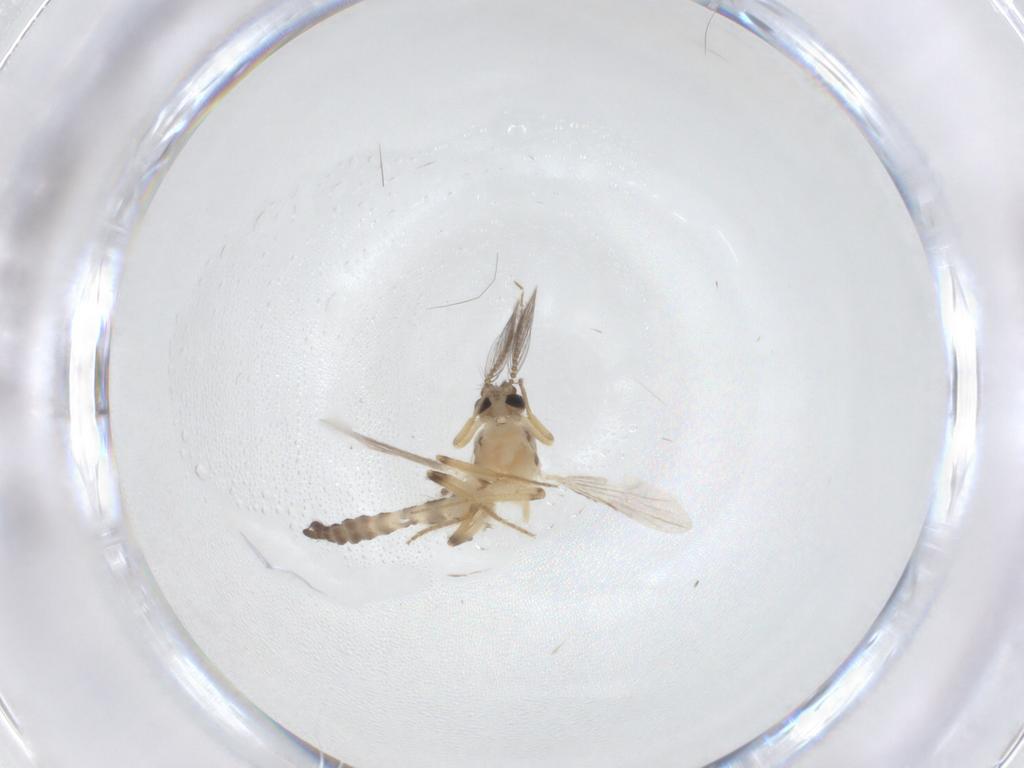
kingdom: Animalia
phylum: Arthropoda
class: Insecta
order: Diptera
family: Ceratopogonidae
